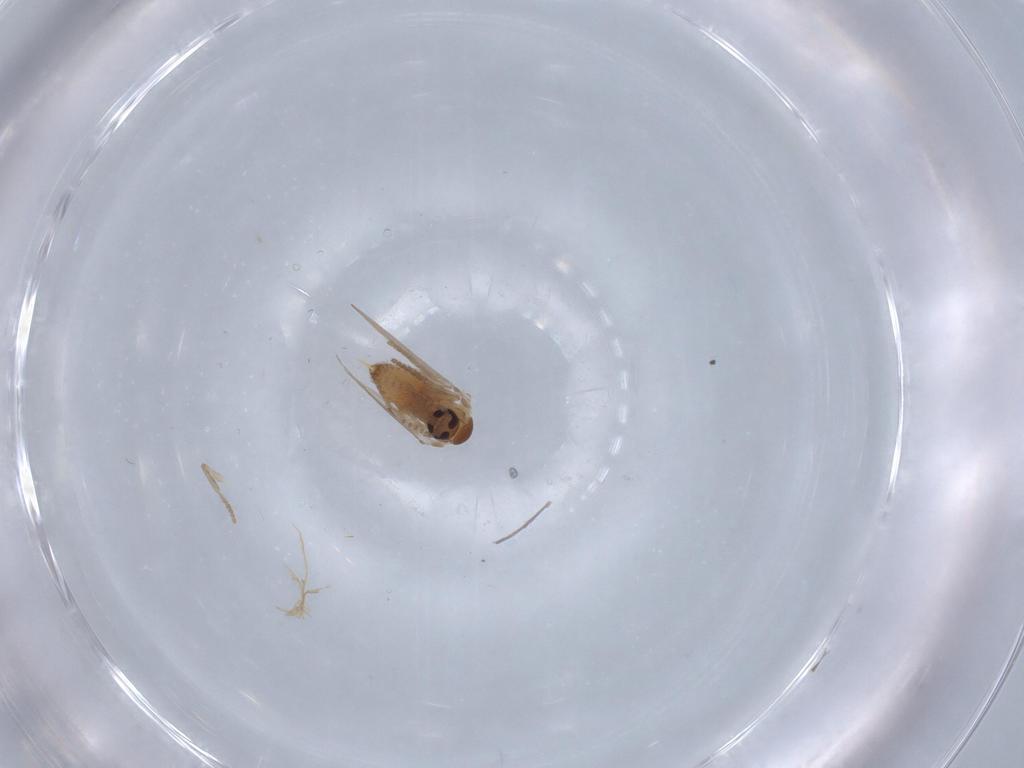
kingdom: Animalia
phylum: Arthropoda
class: Insecta
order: Diptera
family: Psychodidae
